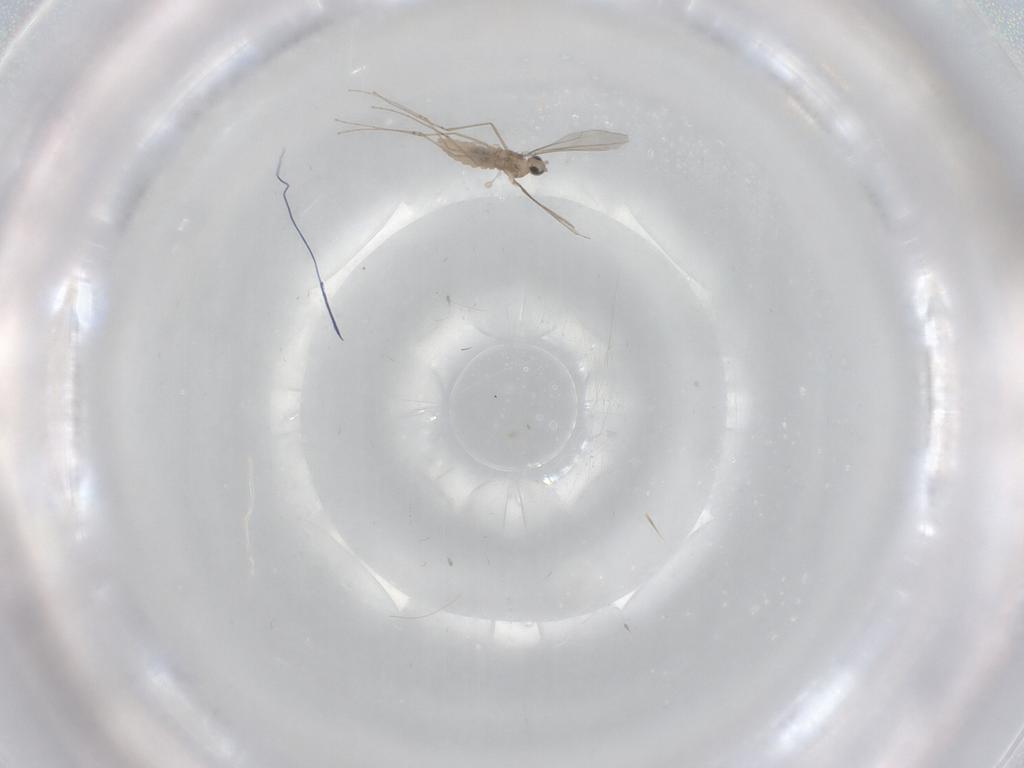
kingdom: Animalia
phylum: Arthropoda
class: Insecta
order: Diptera
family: Cecidomyiidae
